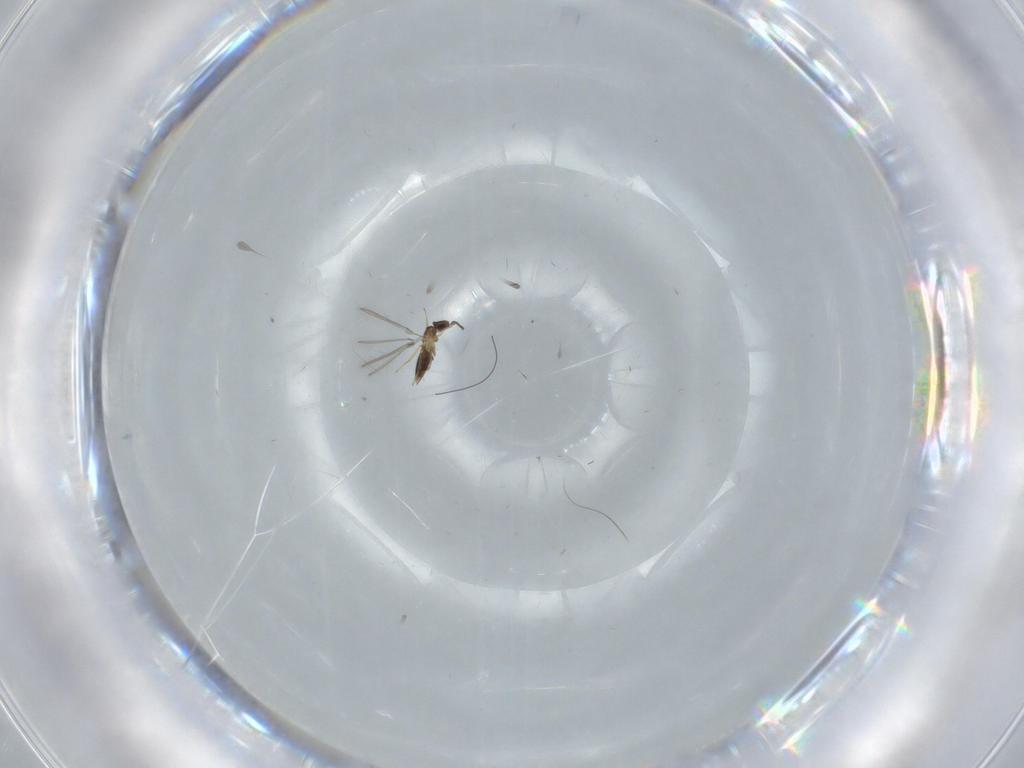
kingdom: Animalia
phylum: Arthropoda
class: Insecta
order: Hymenoptera
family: Mymaridae
